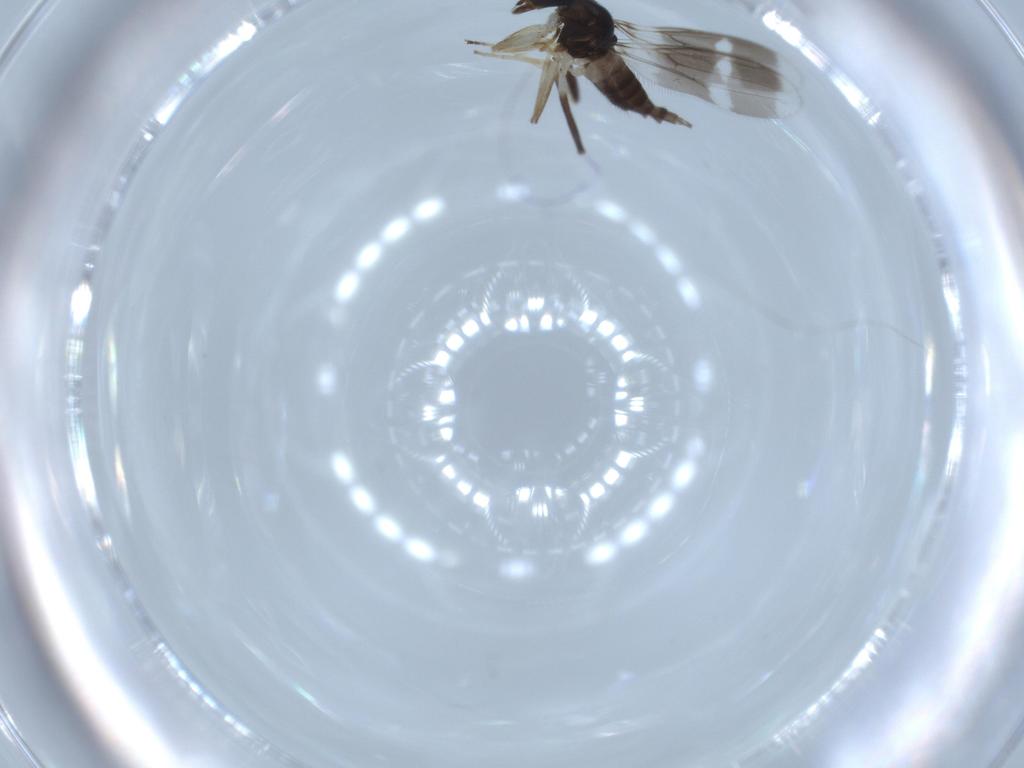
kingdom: Animalia
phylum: Arthropoda
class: Insecta
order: Diptera
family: Hybotidae
